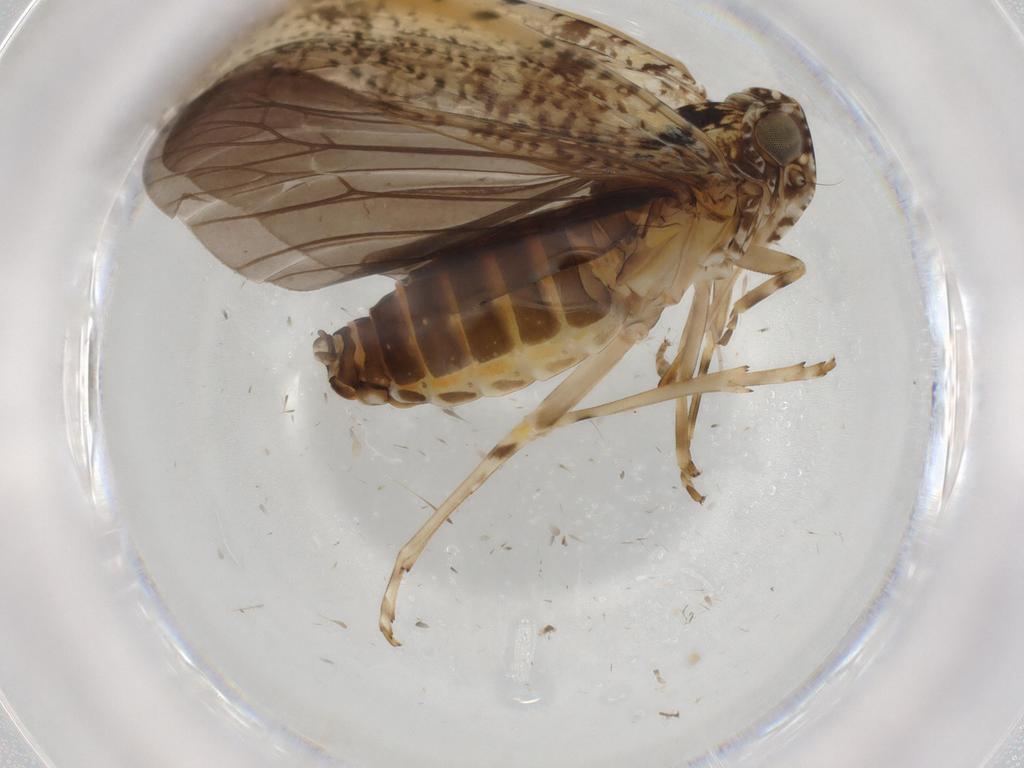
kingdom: Animalia
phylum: Arthropoda
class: Insecta
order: Hemiptera
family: Achilidae
